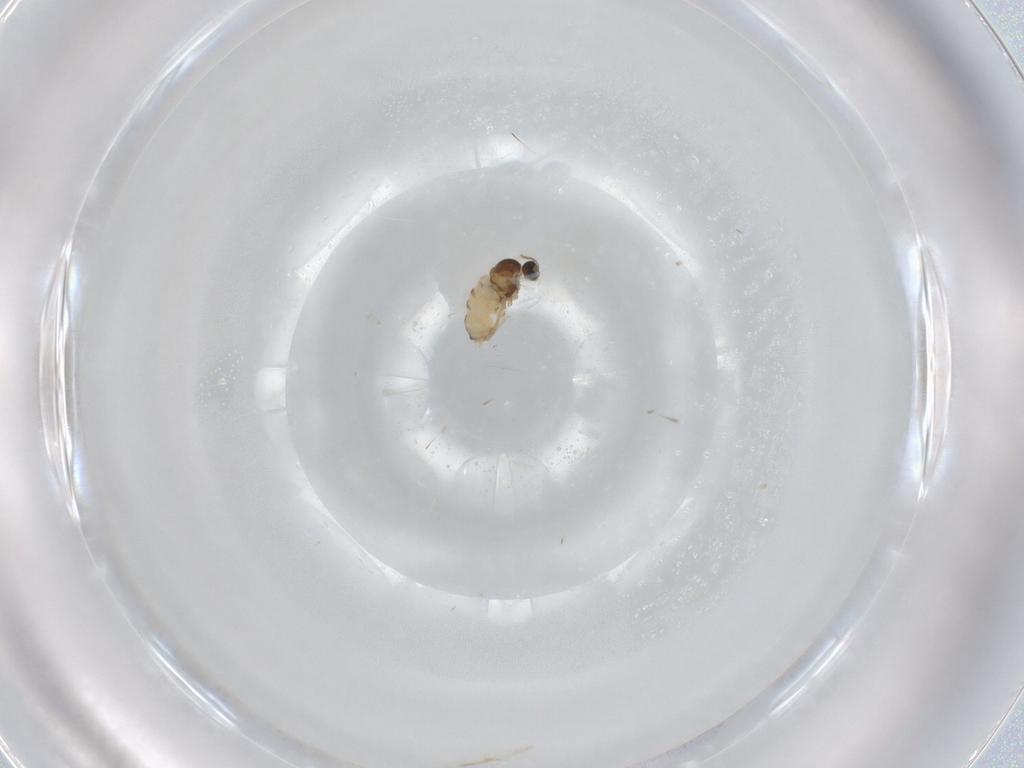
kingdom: Animalia
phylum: Arthropoda
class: Insecta
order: Diptera
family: Cecidomyiidae
